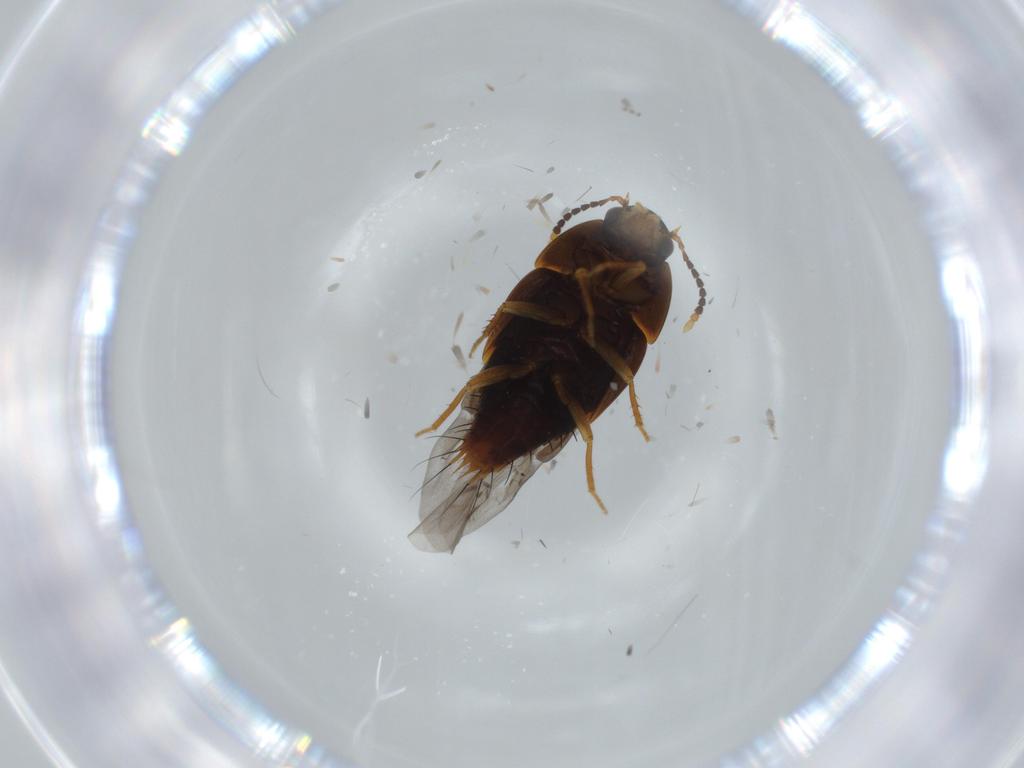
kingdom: Animalia
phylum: Arthropoda
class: Insecta
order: Coleoptera
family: Staphylinidae
